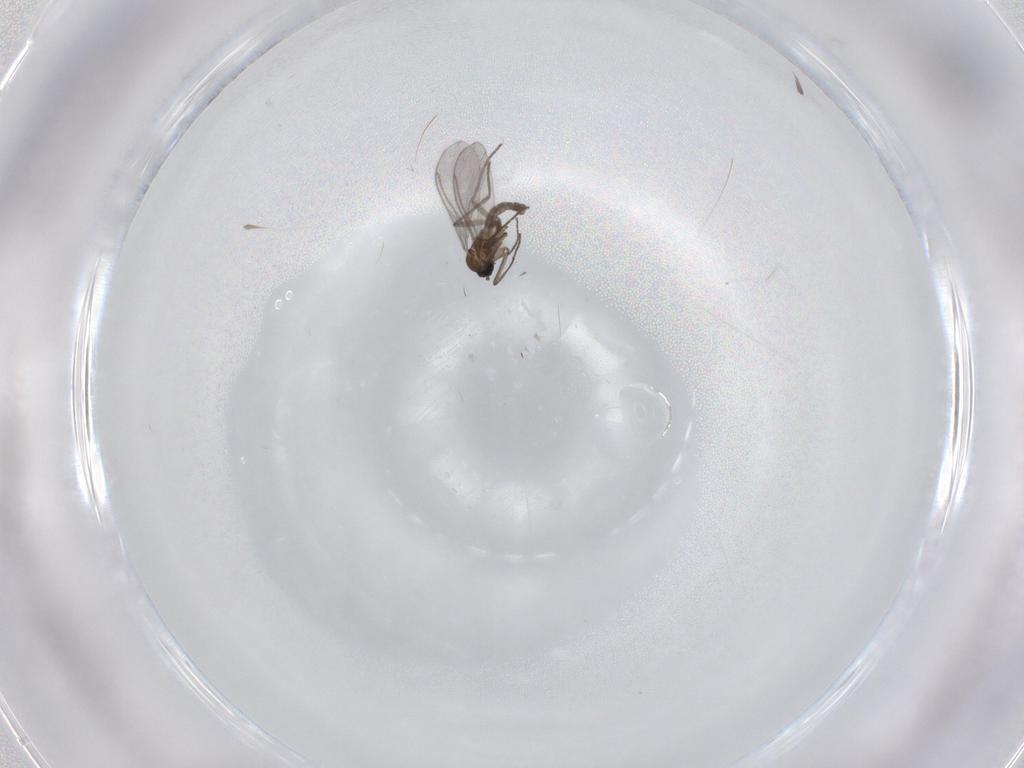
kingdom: Animalia
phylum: Arthropoda
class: Insecta
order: Diptera
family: Sciaridae
